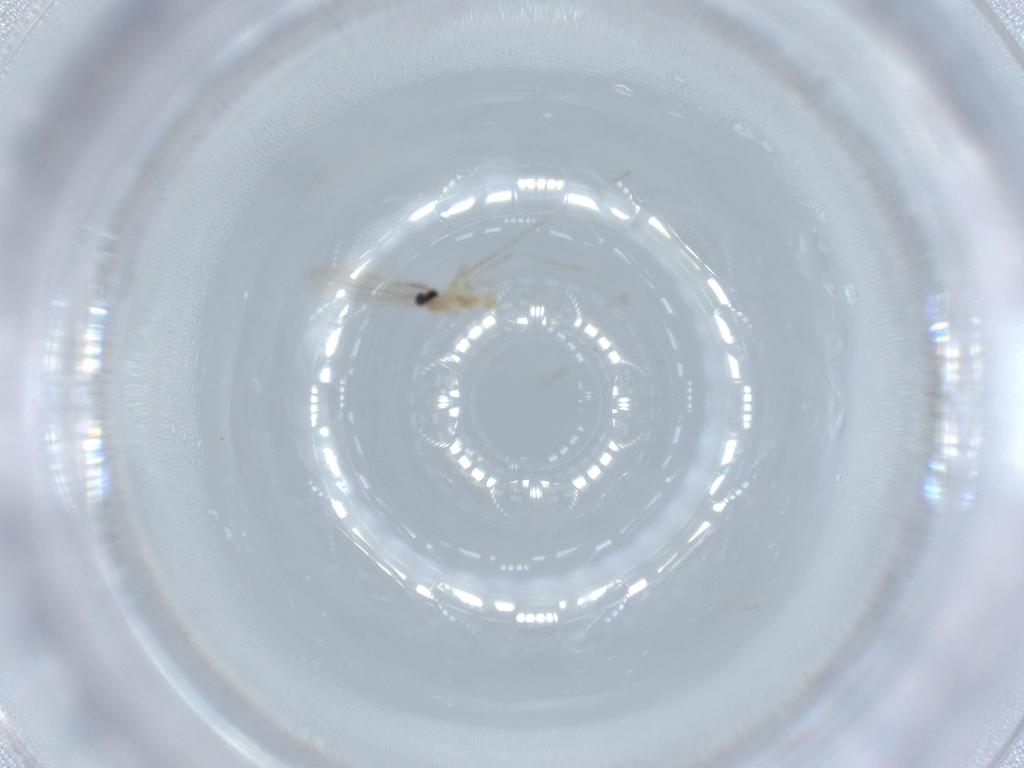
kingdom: Animalia
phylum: Arthropoda
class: Insecta
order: Diptera
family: Cecidomyiidae
